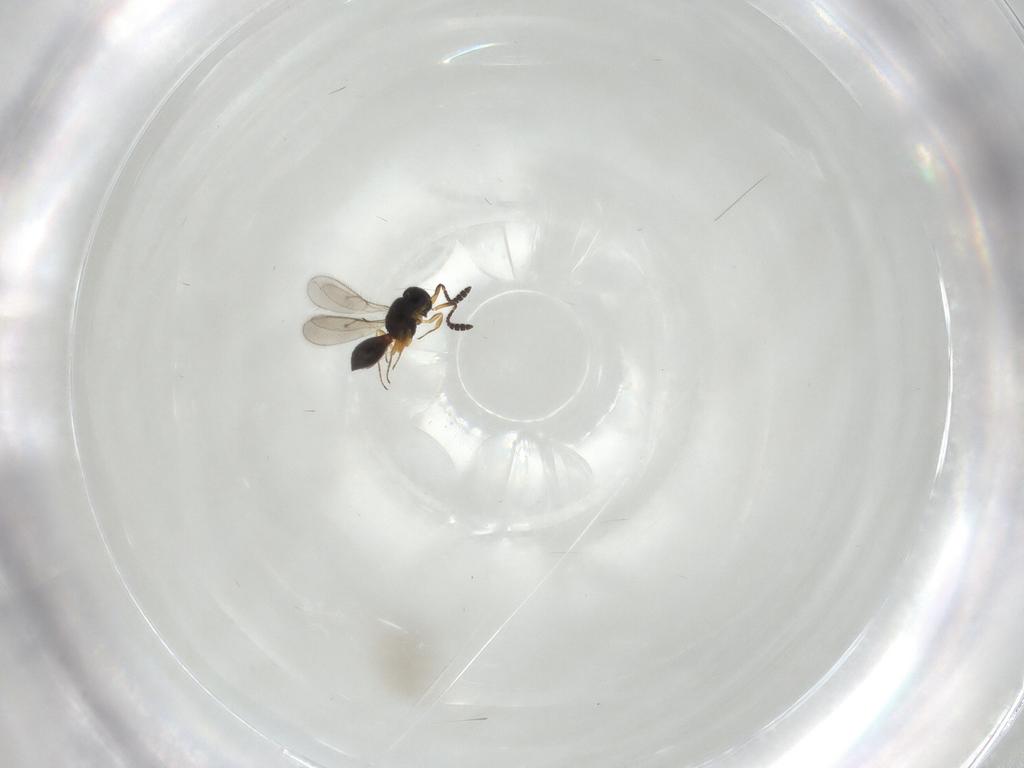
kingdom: Animalia
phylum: Arthropoda
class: Insecta
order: Hymenoptera
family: Scelionidae
